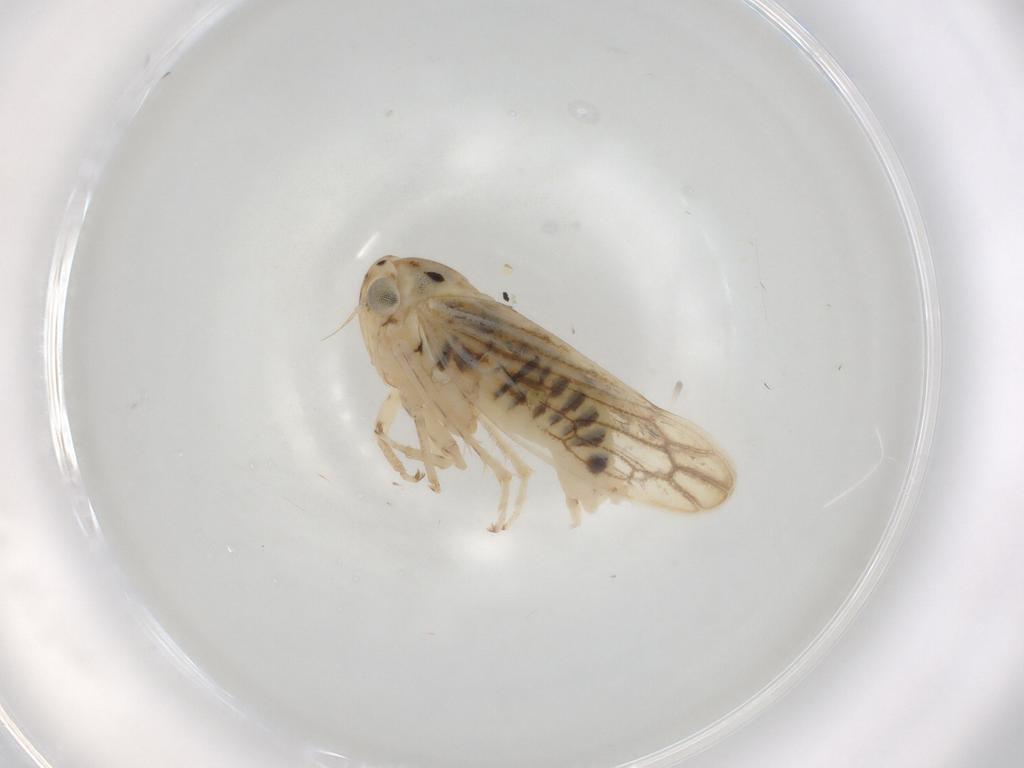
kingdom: Animalia
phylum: Arthropoda
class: Insecta
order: Hemiptera
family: Cicadellidae
